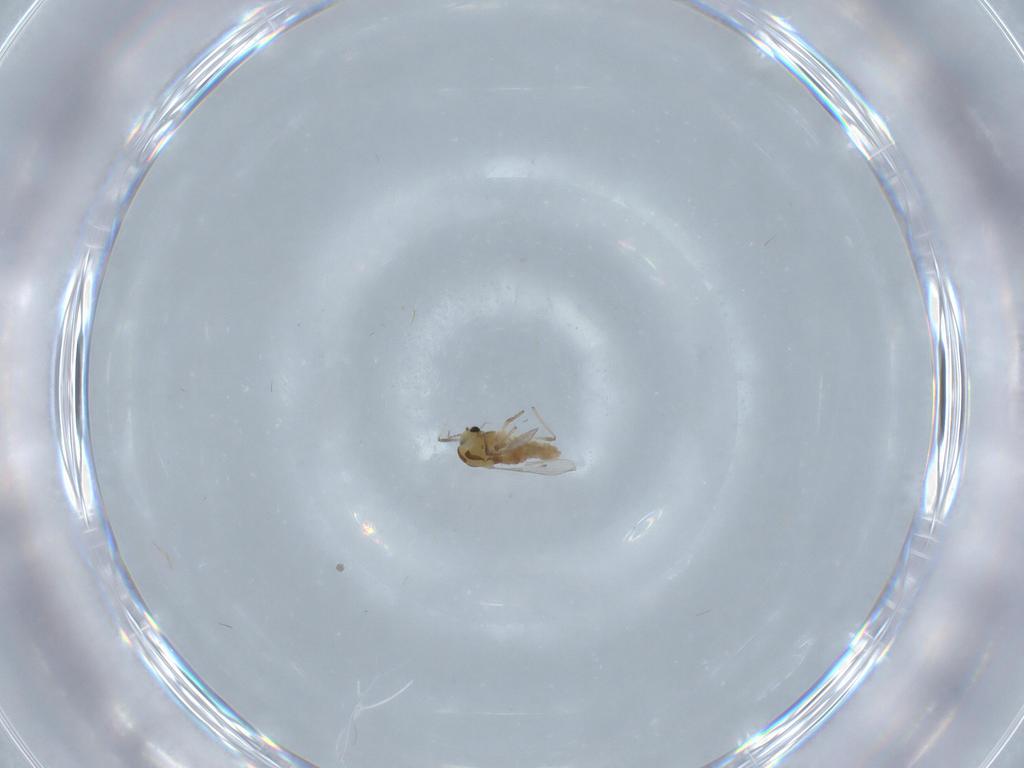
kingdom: Animalia
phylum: Arthropoda
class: Insecta
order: Diptera
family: Chironomidae
